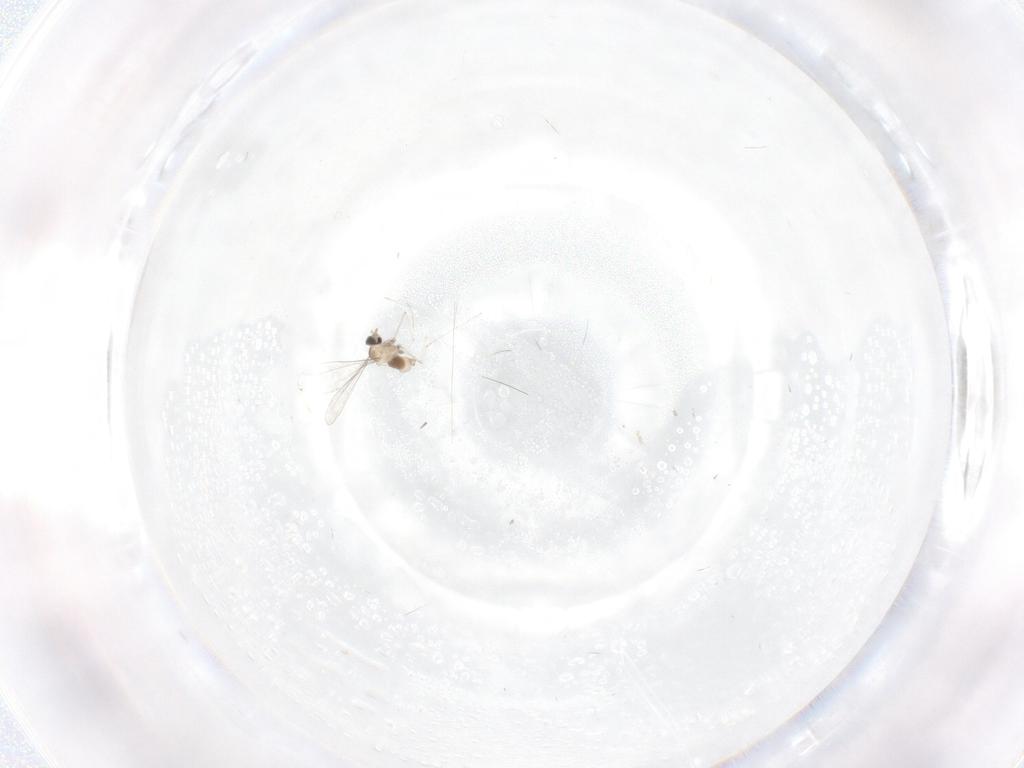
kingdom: Animalia
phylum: Arthropoda
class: Insecta
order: Diptera
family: Cecidomyiidae
